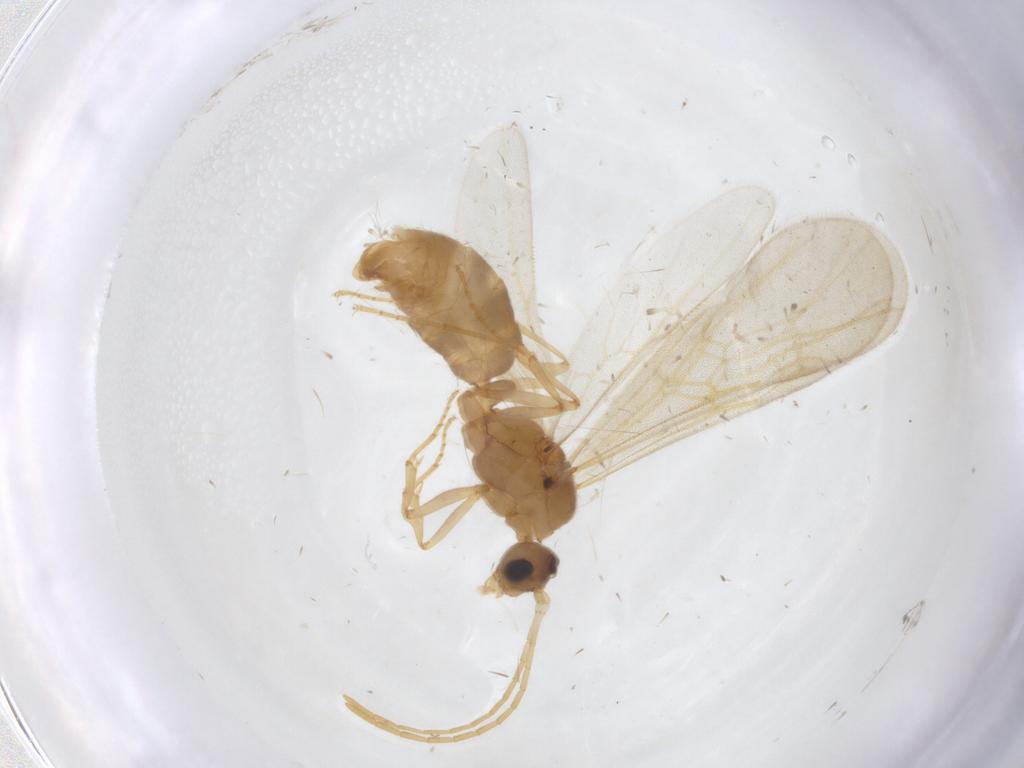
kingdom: Animalia
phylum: Arthropoda
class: Insecta
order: Hymenoptera
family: Formicidae
